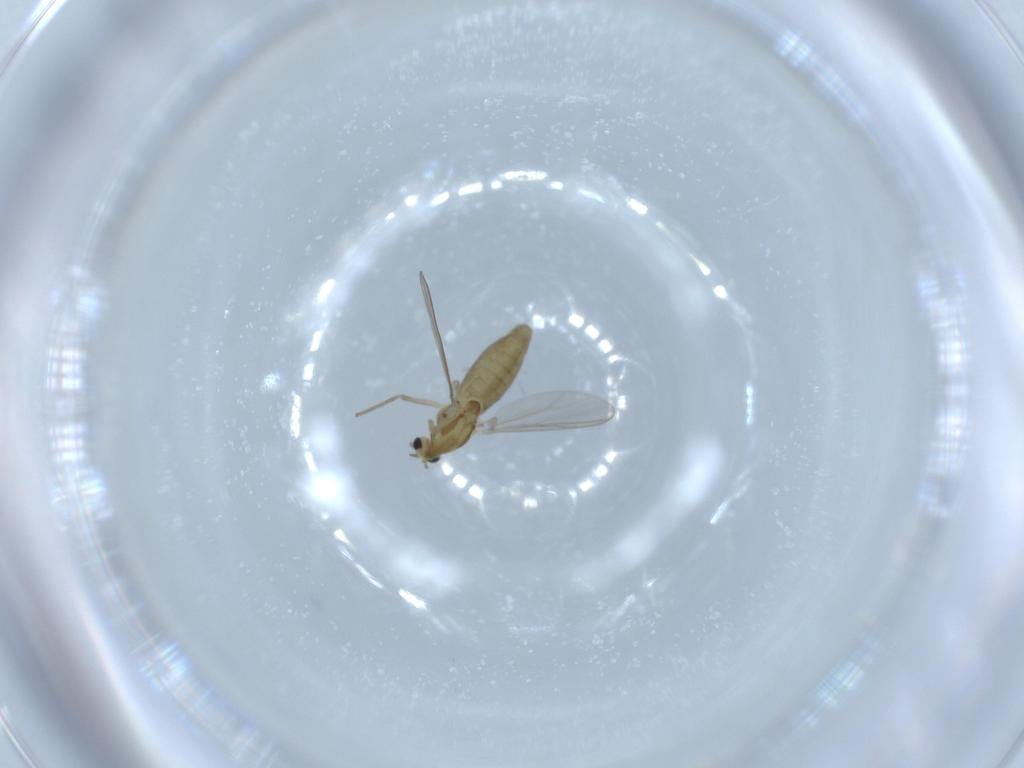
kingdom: Animalia
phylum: Arthropoda
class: Insecta
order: Diptera
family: Chironomidae
